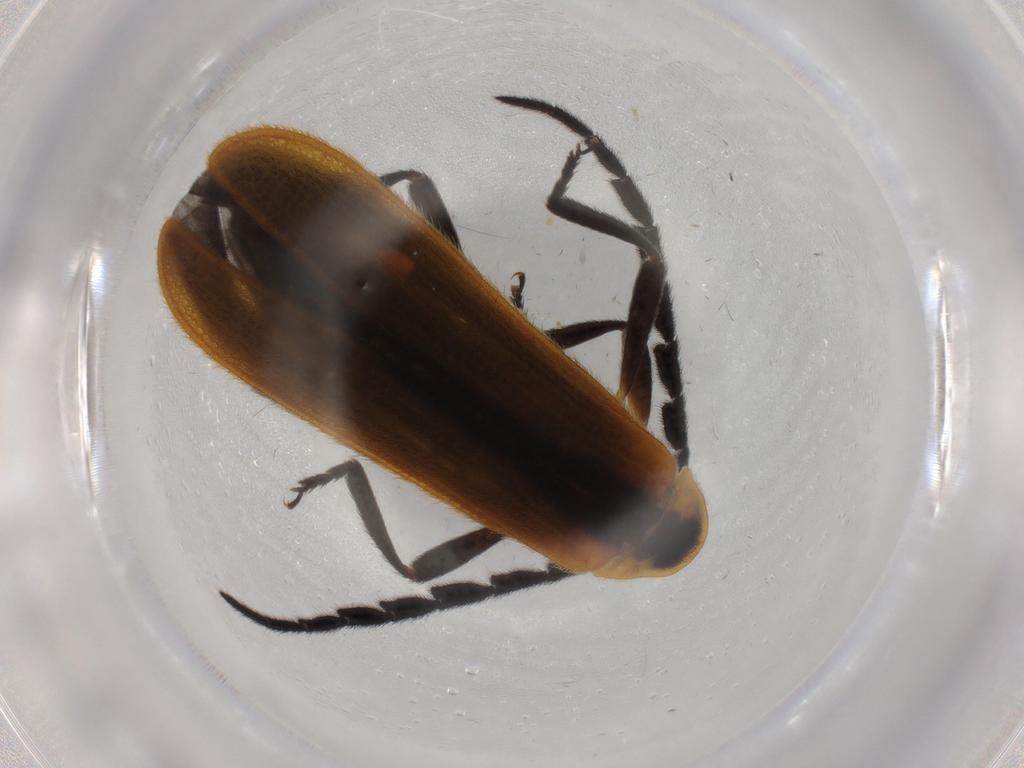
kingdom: Animalia
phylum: Arthropoda
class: Insecta
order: Coleoptera
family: Lycidae
